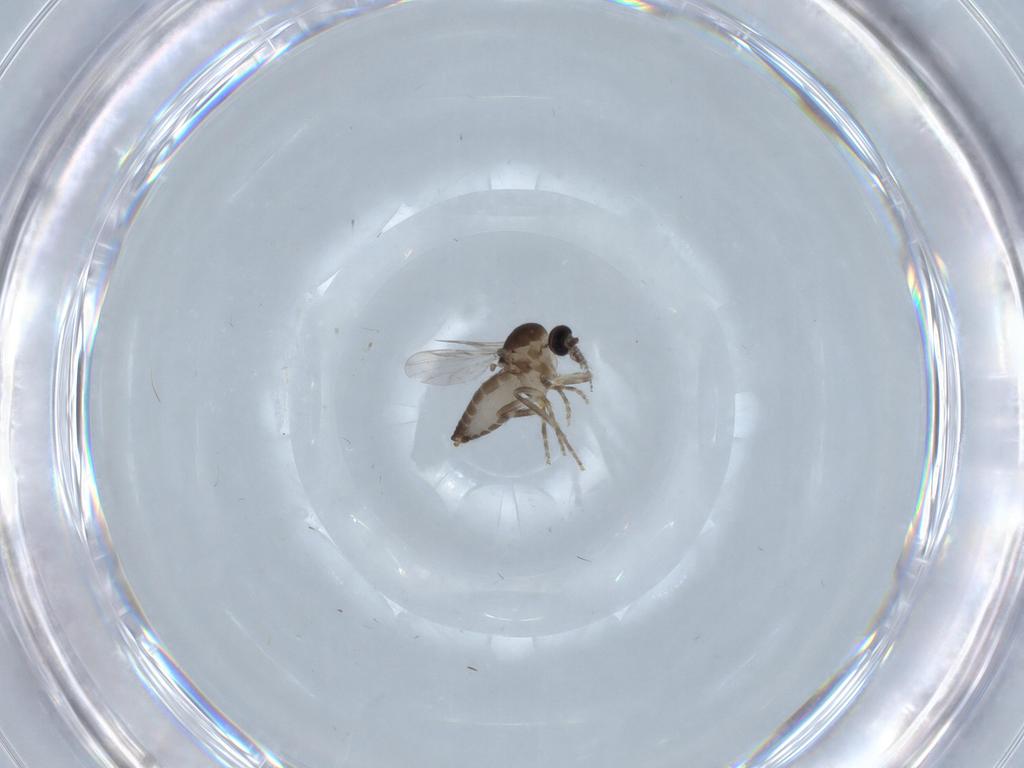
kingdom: Animalia
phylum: Arthropoda
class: Insecta
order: Diptera
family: Ceratopogonidae
